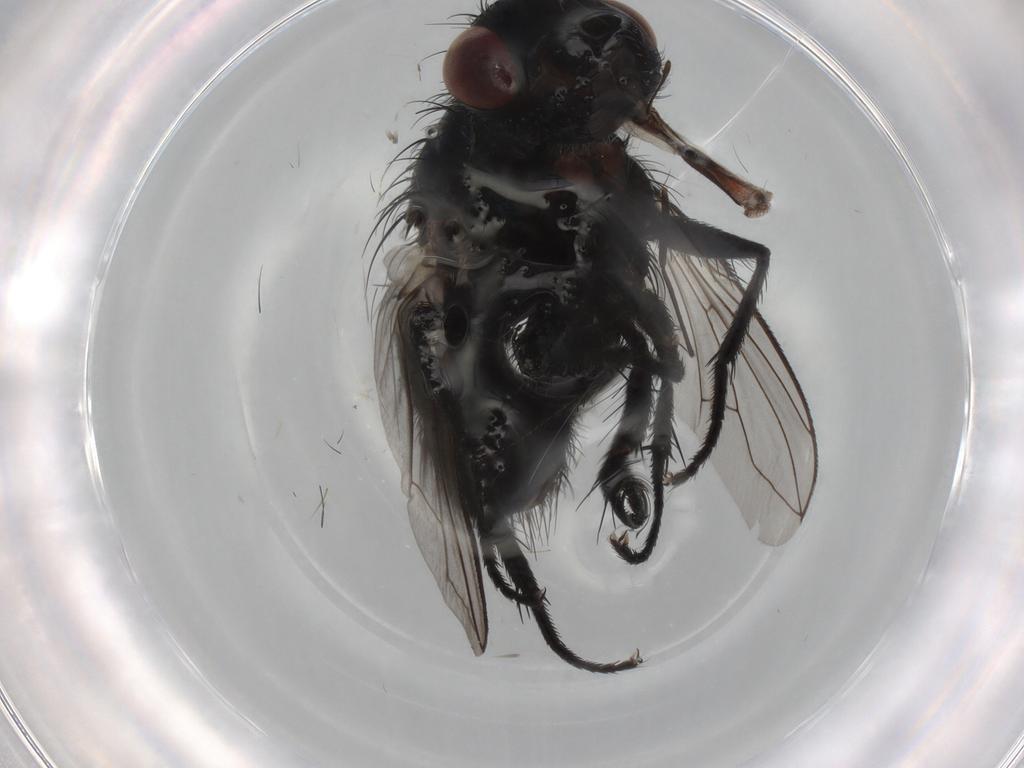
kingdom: Animalia
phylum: Arthropoda
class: Insecta
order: Diptera
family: Tachinidae
